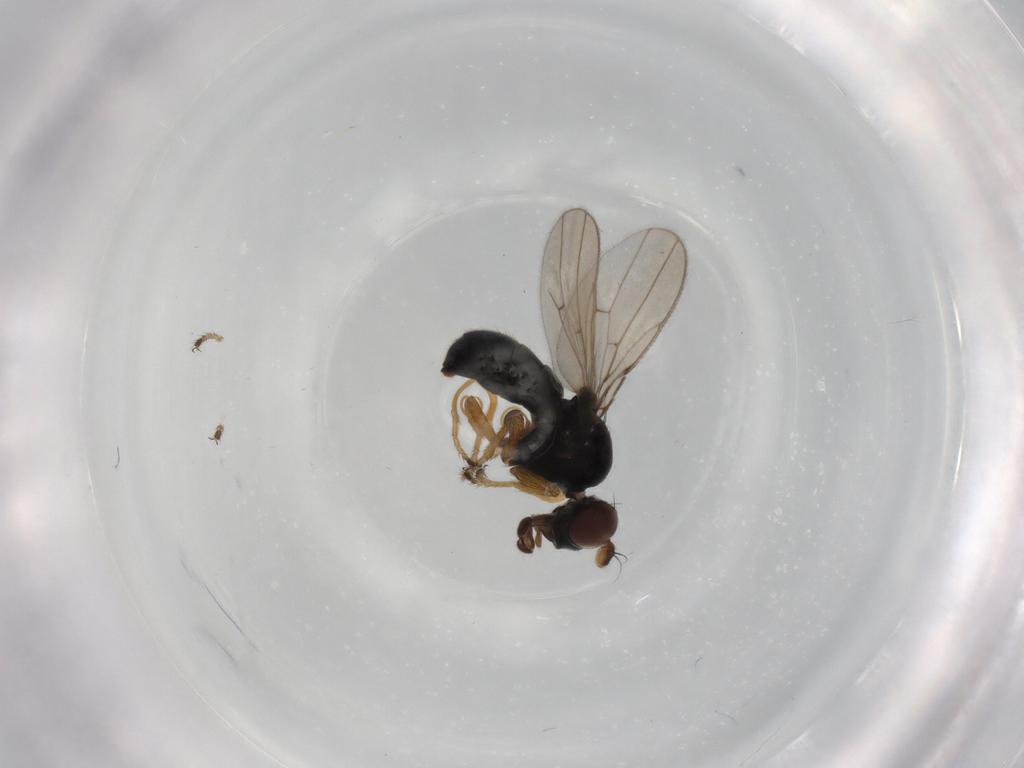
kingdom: Animalia
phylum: Arthropoda
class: Insecta
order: Diptera
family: Ephydridae
